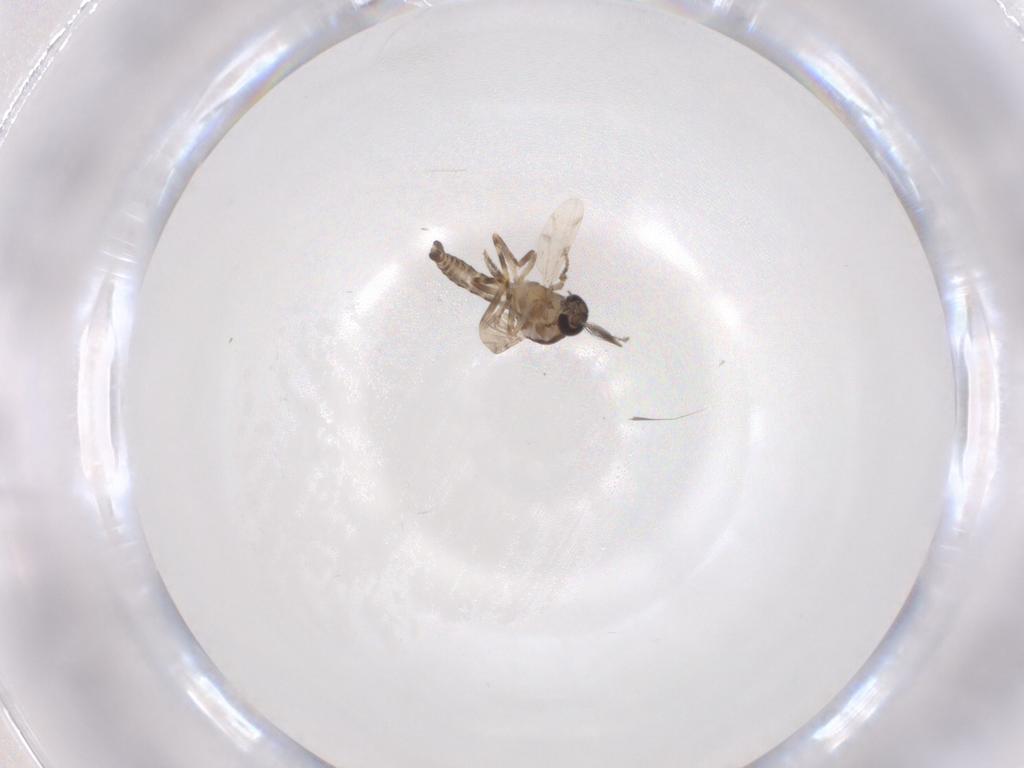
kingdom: Animalia
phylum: Arthropoda
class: Insecta
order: Diptera
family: Ceratopogonidae
